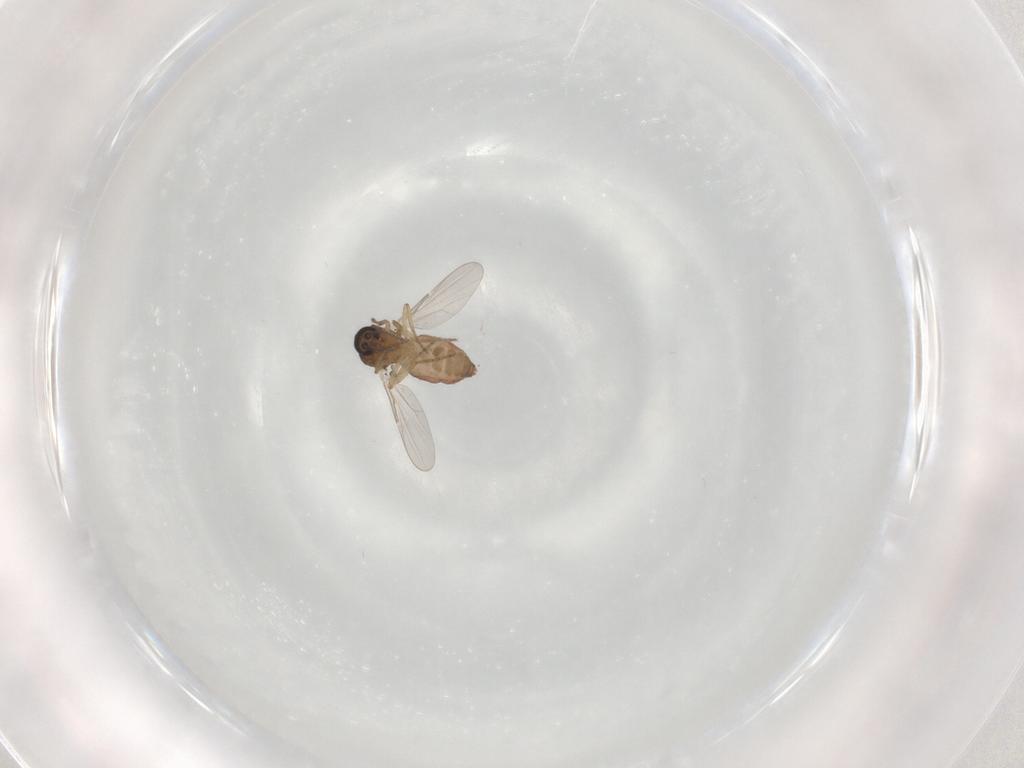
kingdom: Animalia
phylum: Arthropoda
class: Insecta
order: Diptera
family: Ceratopogonidae
